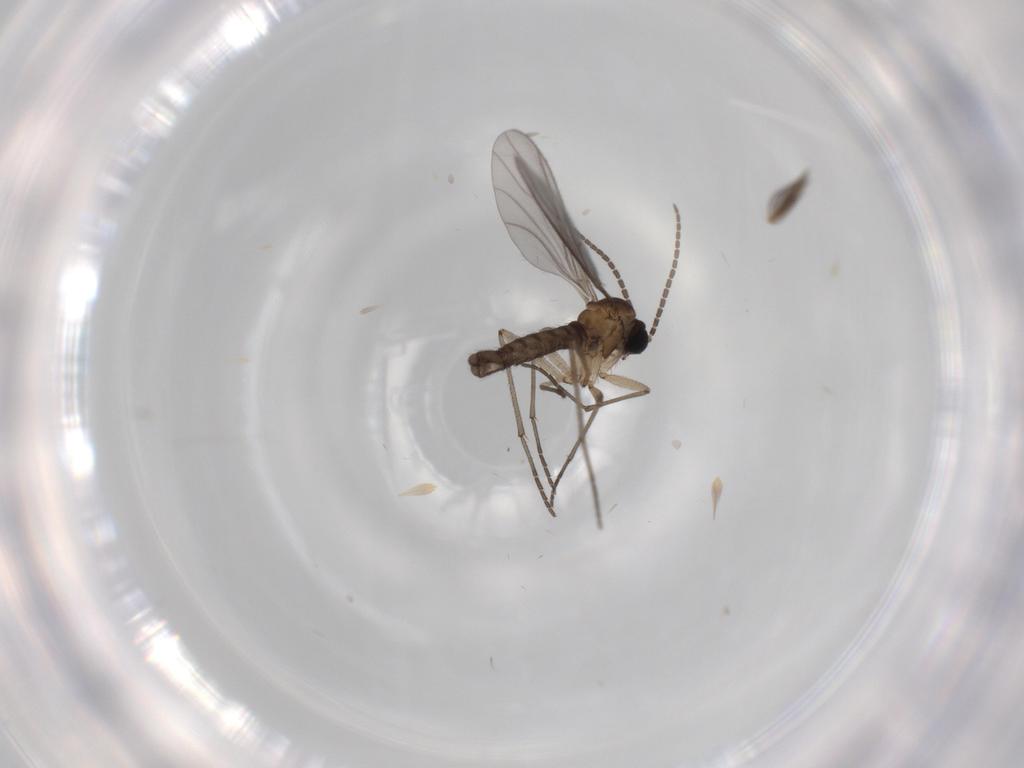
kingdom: Animalia
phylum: Arthropoda
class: Insecta
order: Diptera
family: Sciaridae
